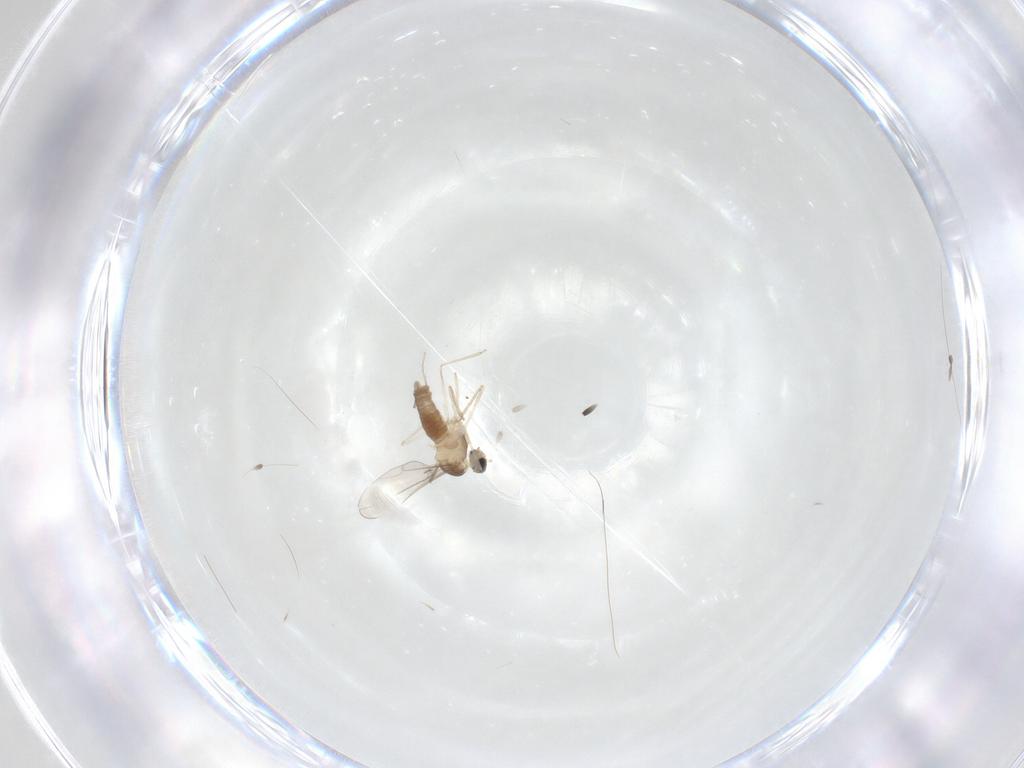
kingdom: Animalia
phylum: Arthropoda
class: Insecta
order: Diptera
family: Cecidomyiidae
